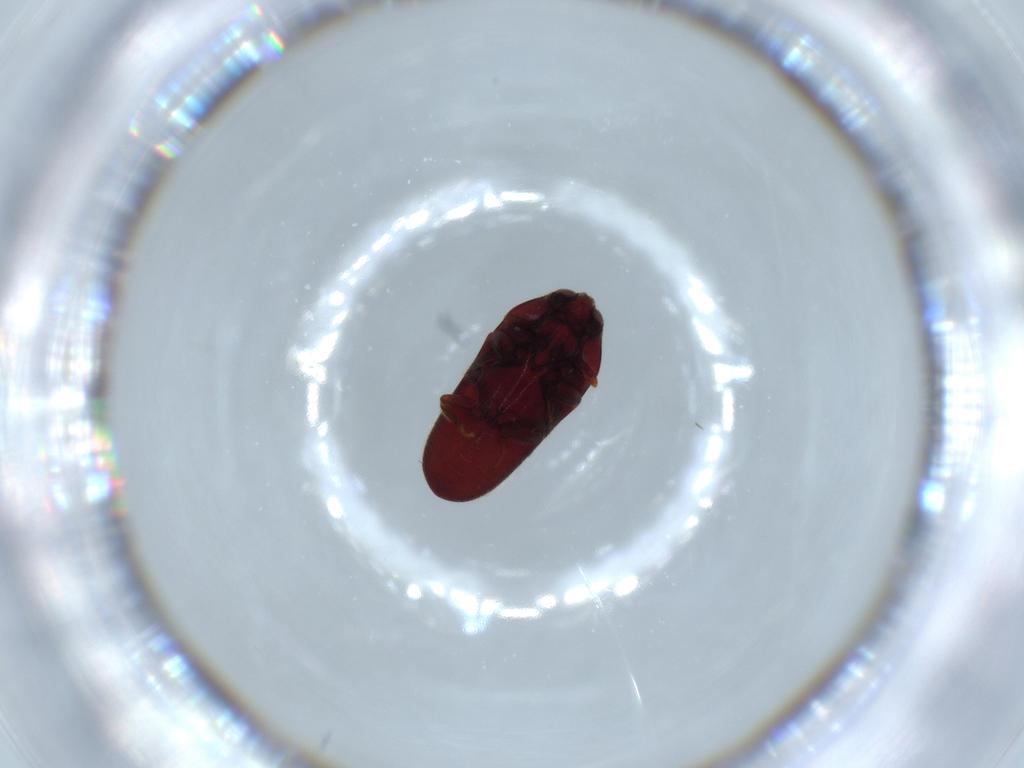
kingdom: Animalia
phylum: Arthropoda
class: Insecta
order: Coleoptera
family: Throscidae
